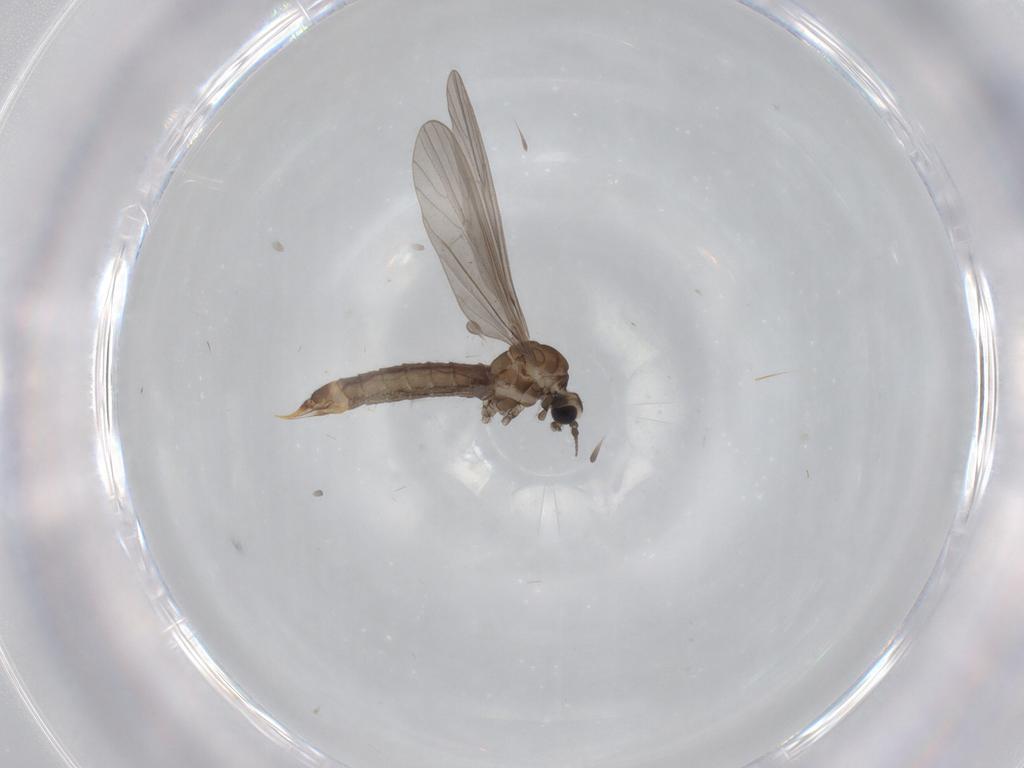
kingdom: Animalia
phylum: Arthropoda
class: Insecta
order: Diptera
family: Limoniidae
